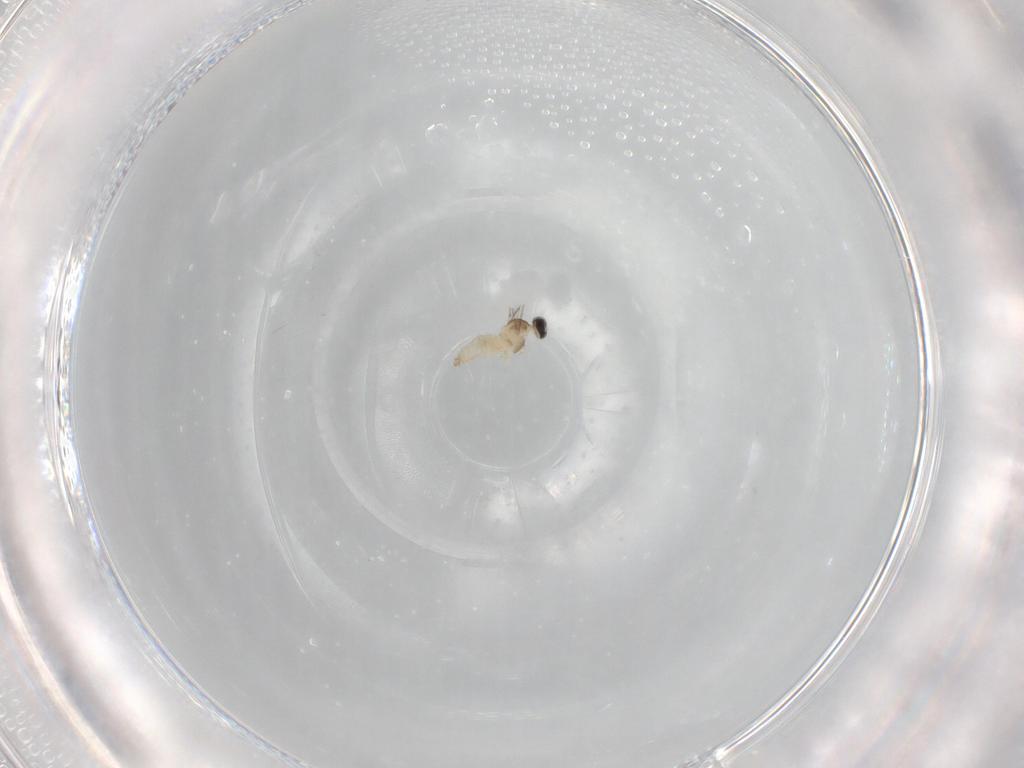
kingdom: Animalia
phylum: Arthropoda
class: Insecta
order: Diptera
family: Cecidomyiidae
